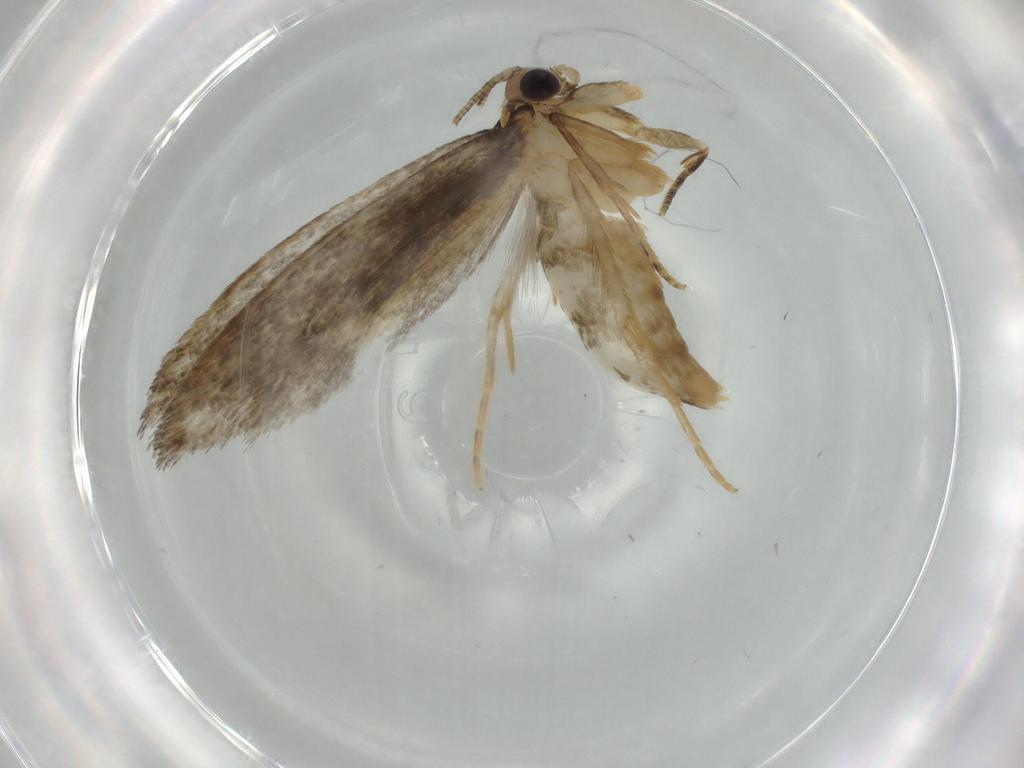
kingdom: Animalia
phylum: Arthropoda
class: Insecta
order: Lepidoptera
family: Tineidae
